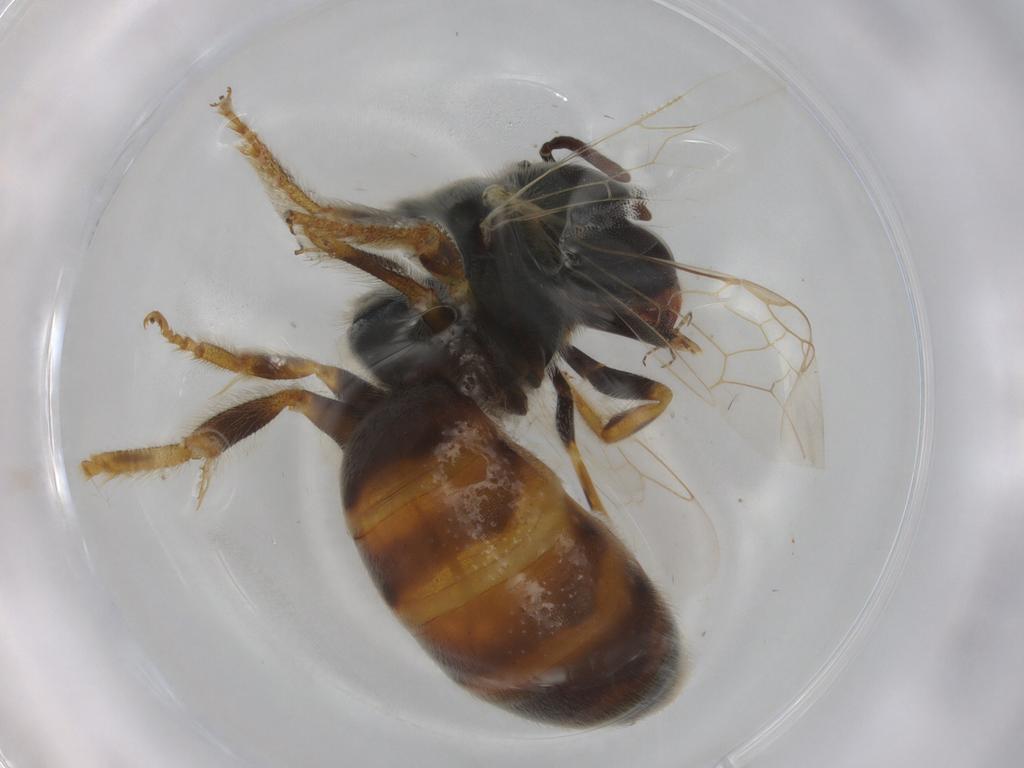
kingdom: Animalia
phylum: Arthropoda
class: Insecta
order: Hymenoptera
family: Halictidae
